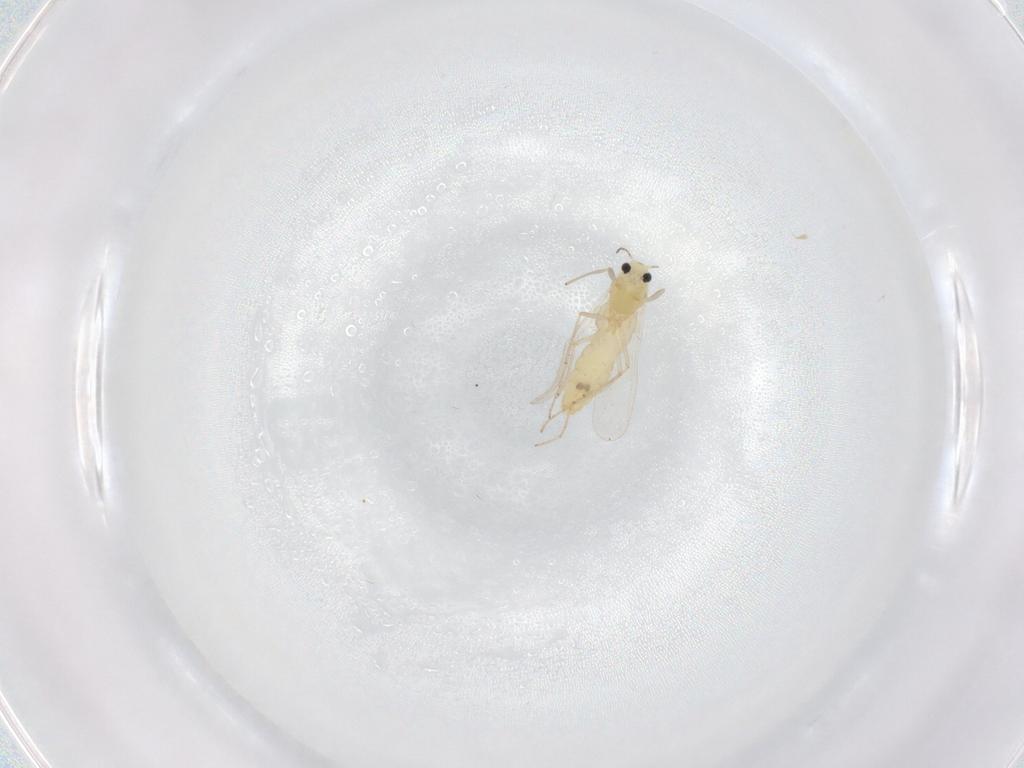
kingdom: Animalia
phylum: Arthropoda
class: Insecta
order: Diptera
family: Chironomidae
